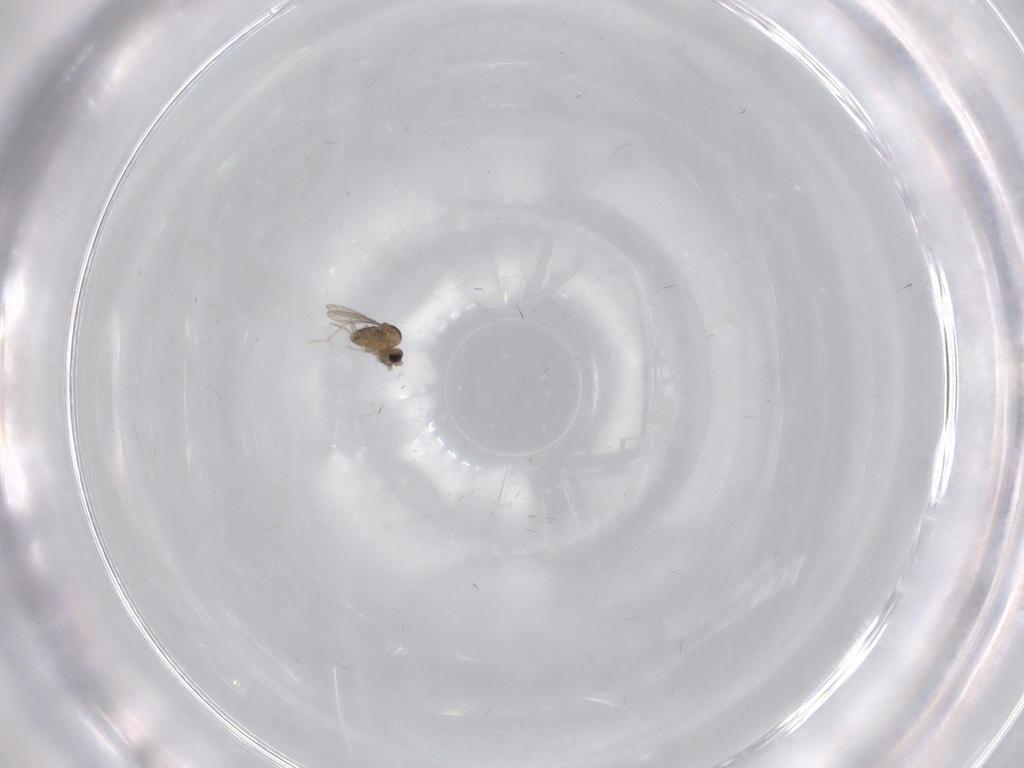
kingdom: Animalia
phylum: Arthropoda
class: Insecta
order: Diptera
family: Cecidomyiidae
